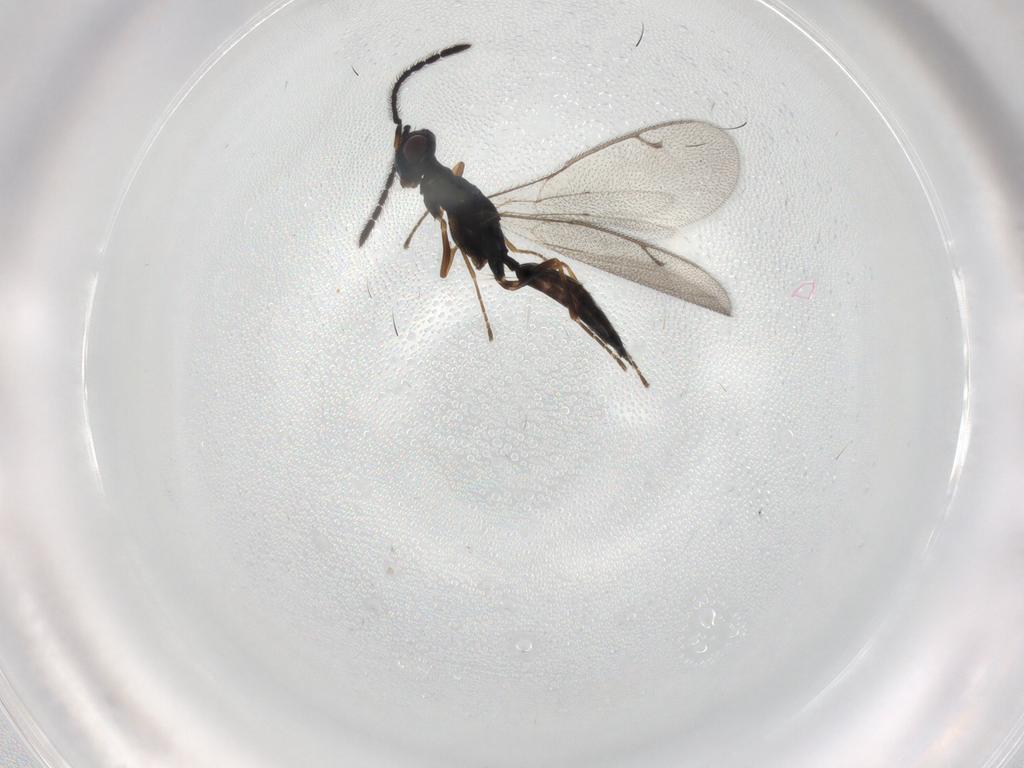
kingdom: Animalia
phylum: Arthropoda
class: Insecta
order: Hymenoptera
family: Pteromalidae
